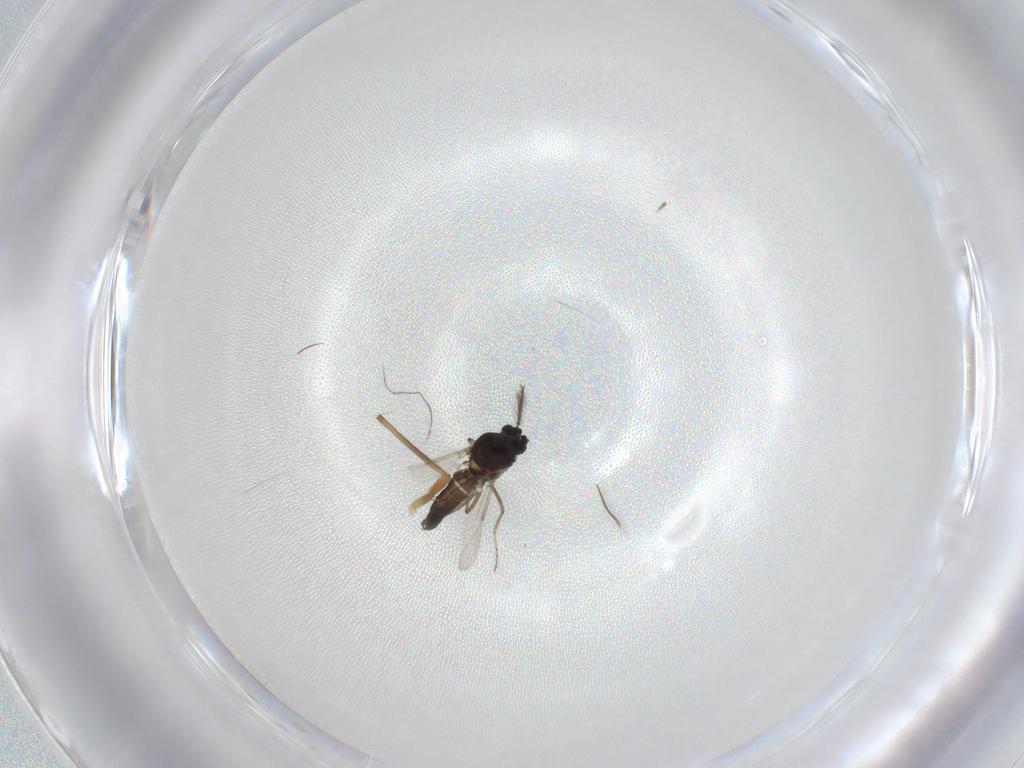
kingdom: Animalia
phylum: Arthropoda
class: Insecta
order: Diptera
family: Ceratopogonidae
